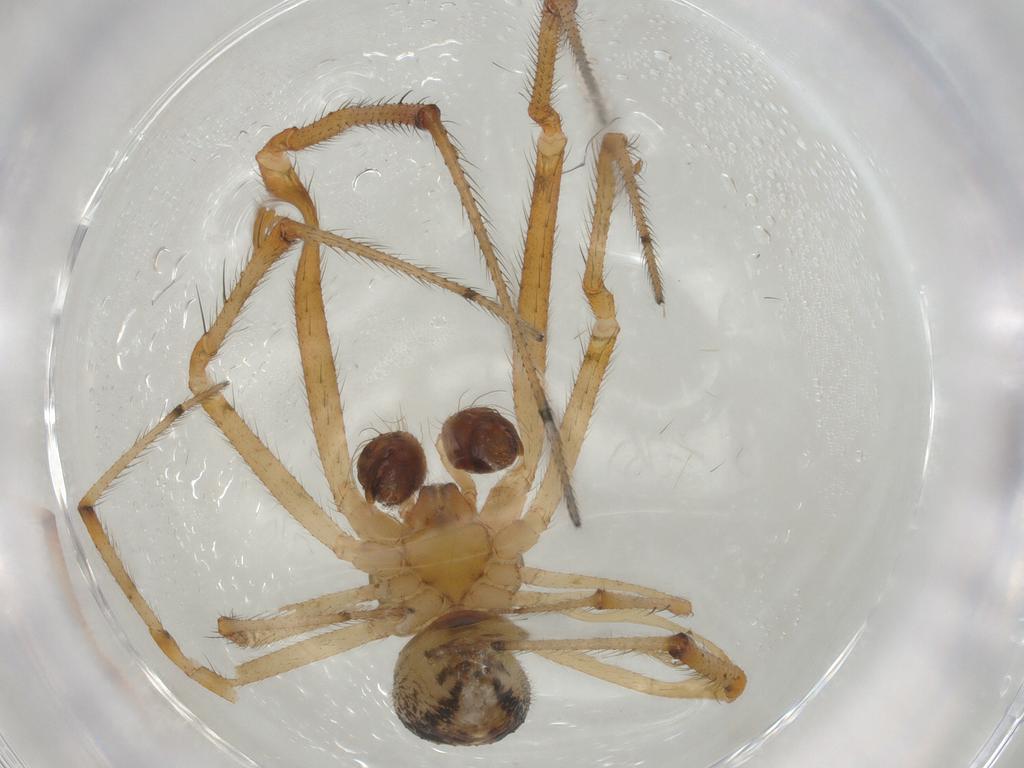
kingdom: Animalia
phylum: Arthropoda
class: Arachnida
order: Araneae
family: Theridiidae
